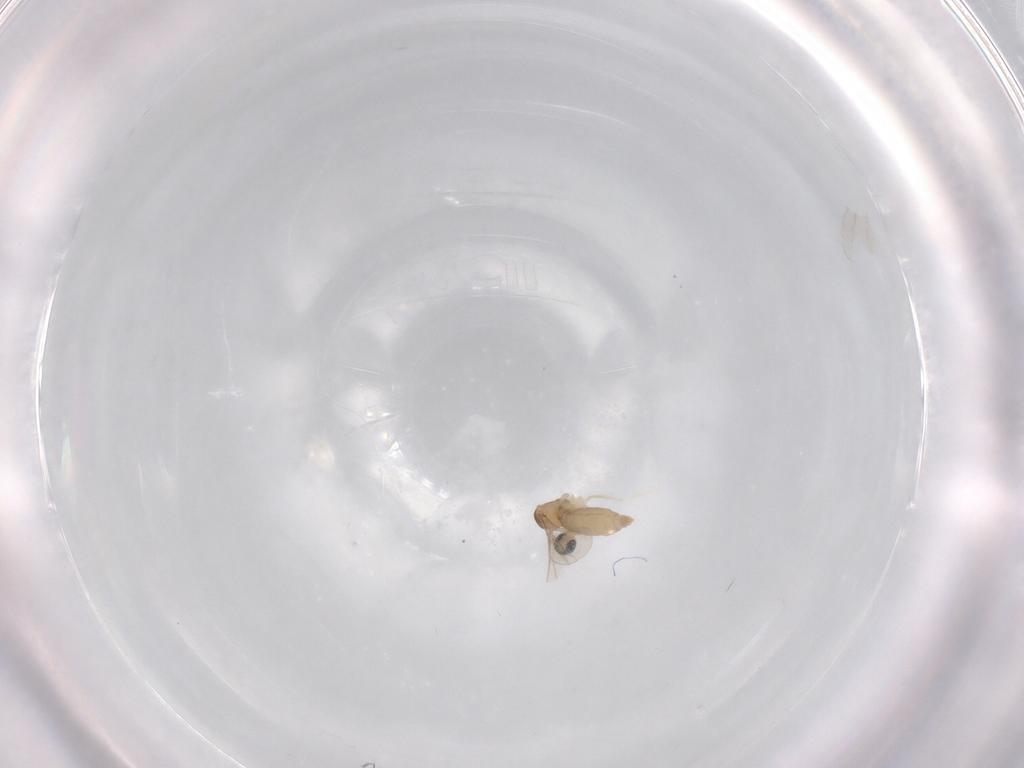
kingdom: Animalia
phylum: Arthropoda
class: Insecta
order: Diptera
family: Cecidomyiidae
